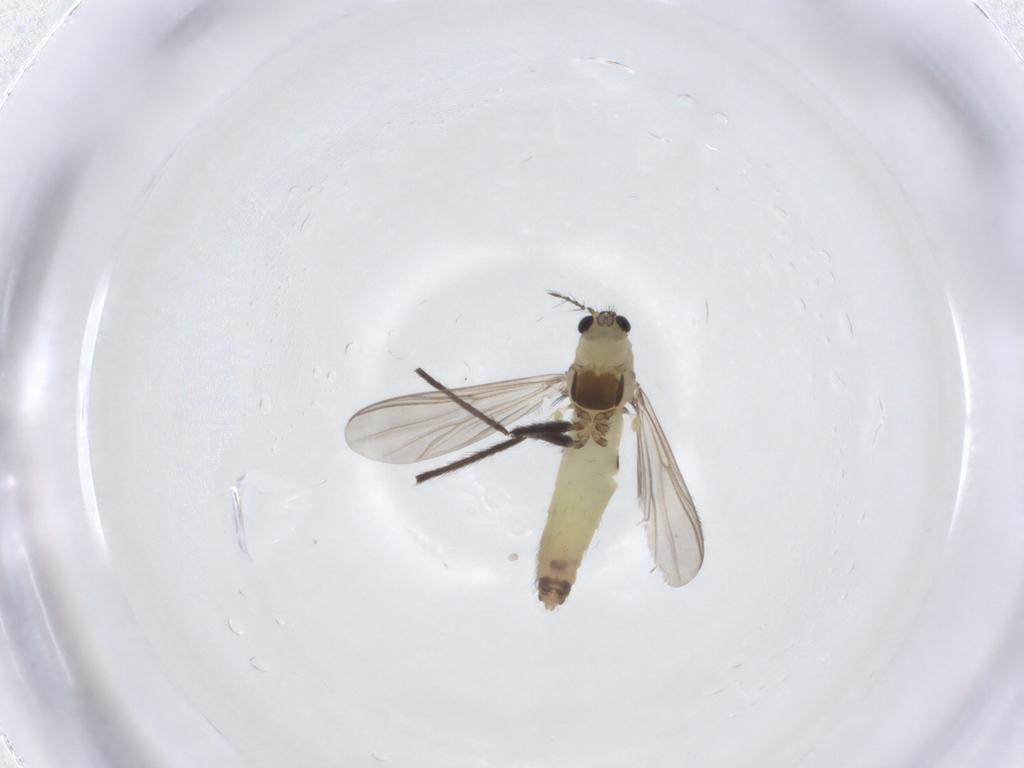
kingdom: Animalia
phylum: Arthropoda
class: Insecta
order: Diptera
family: Chironomidae
